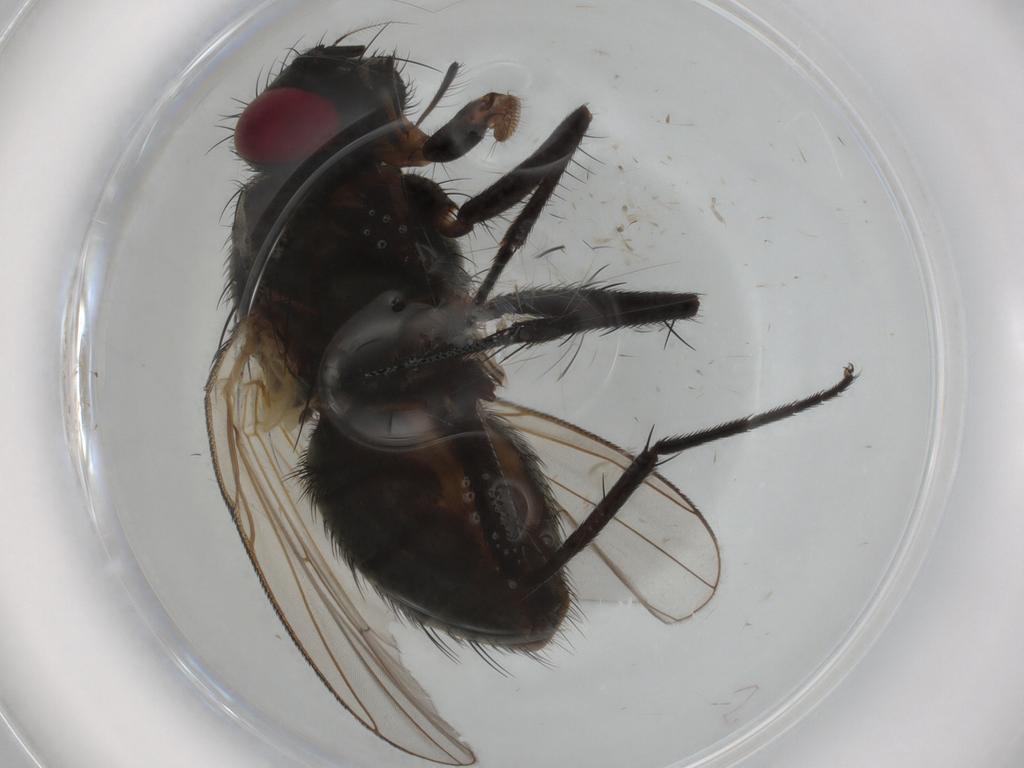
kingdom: Animalia
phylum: Arthropoda
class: Insecta
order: Diptera
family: Muscidae
